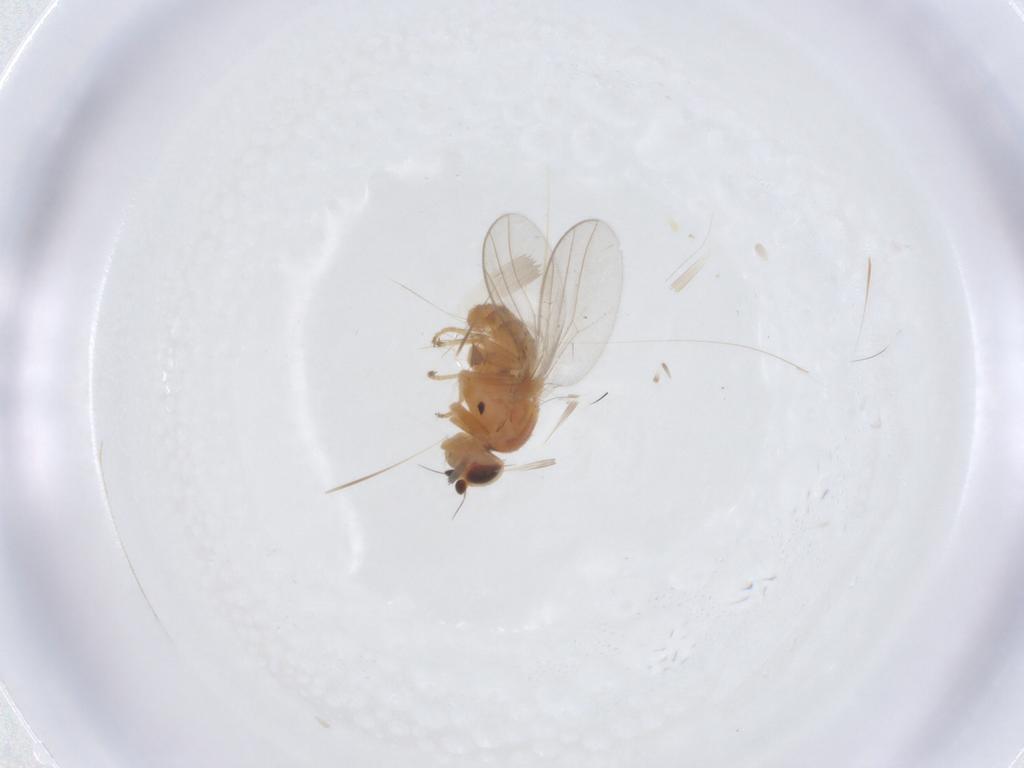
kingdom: Animalia
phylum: Arthropoda
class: Insecta
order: Diptera
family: Chloropidae
